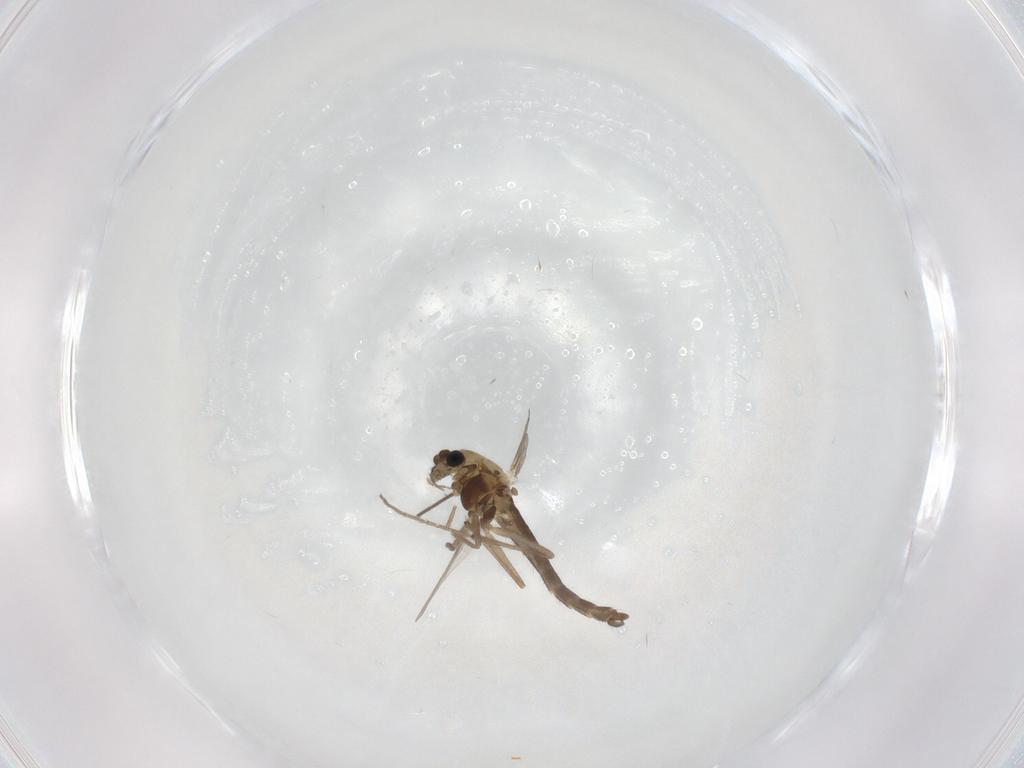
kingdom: Animalia
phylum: Arthropoda
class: Insecta
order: Diptera
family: Chironomidae
